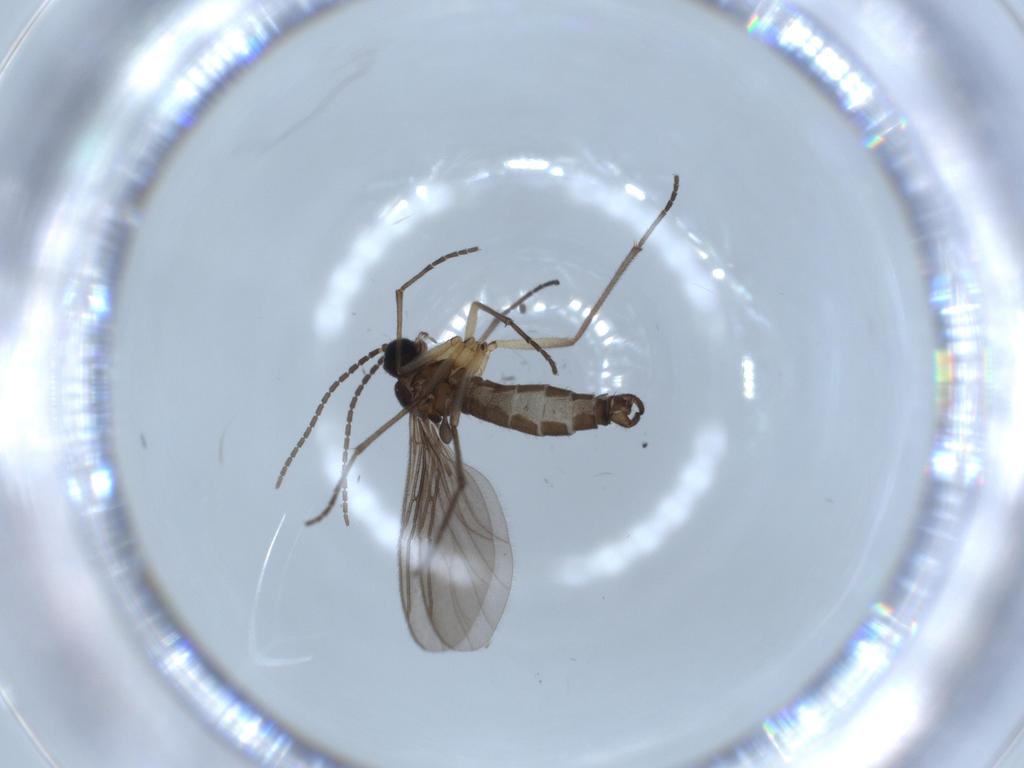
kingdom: Animalia
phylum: Arthropoda
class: Insecta
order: Diptera
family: Sciaridae
